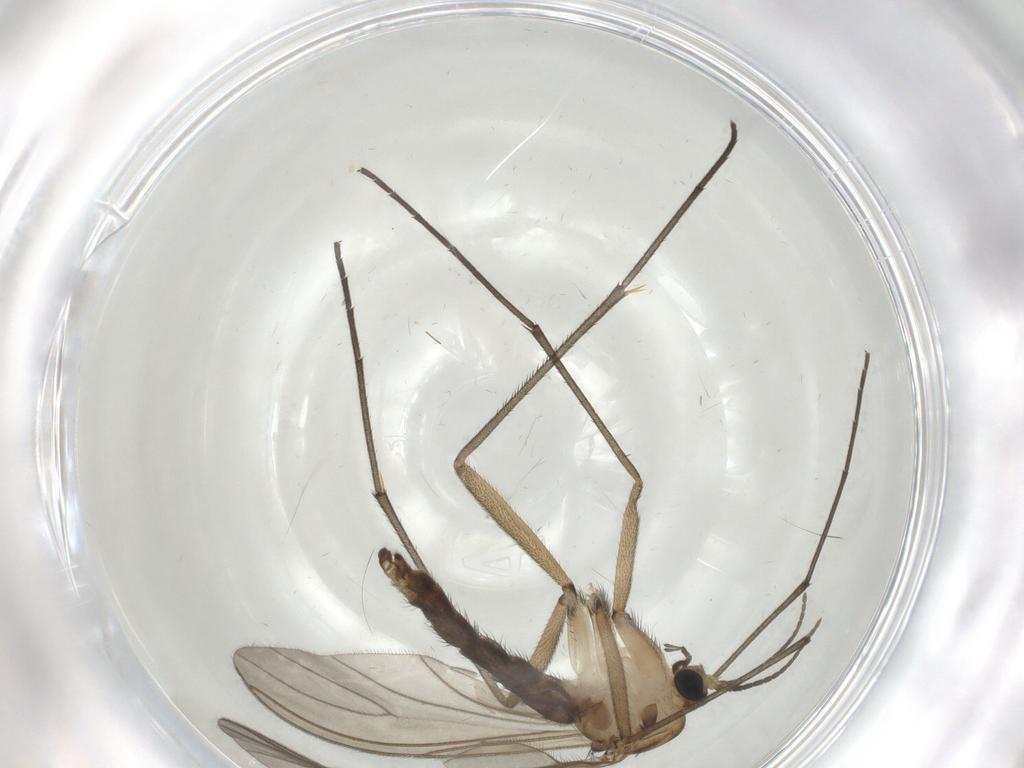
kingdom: Animalia
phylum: Arthropoda
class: Insecta
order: Diptera
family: Sciaridae
